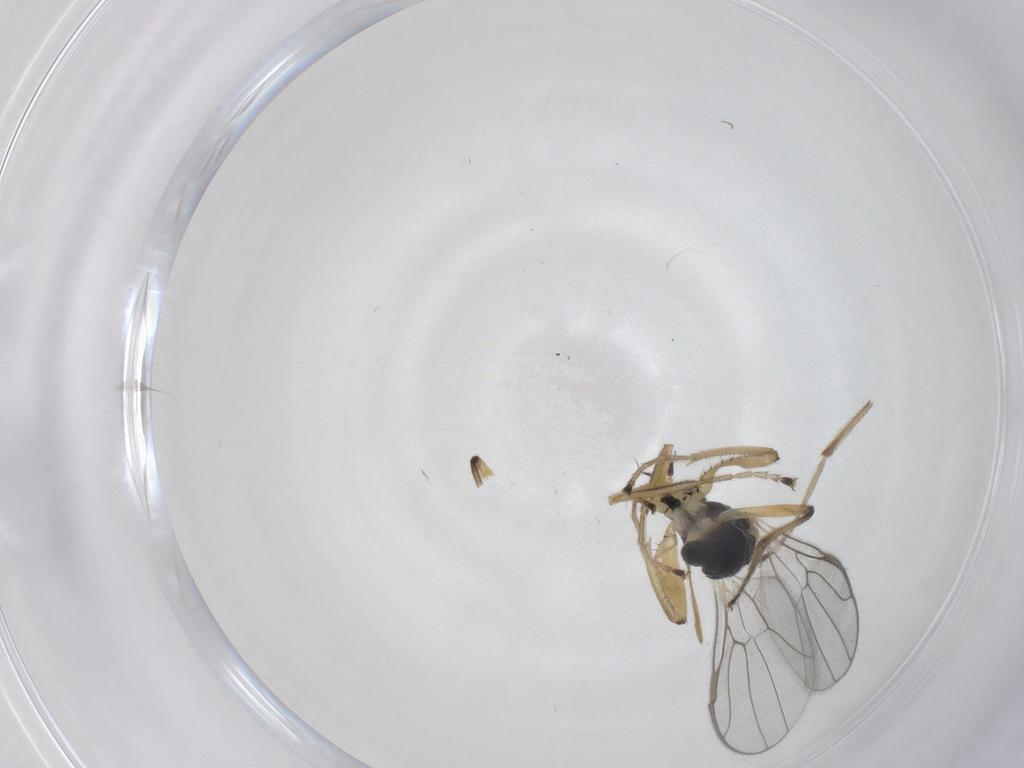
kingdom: Animalia
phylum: Arthropoda
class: Insecta
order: Diptera
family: Hybotidae
